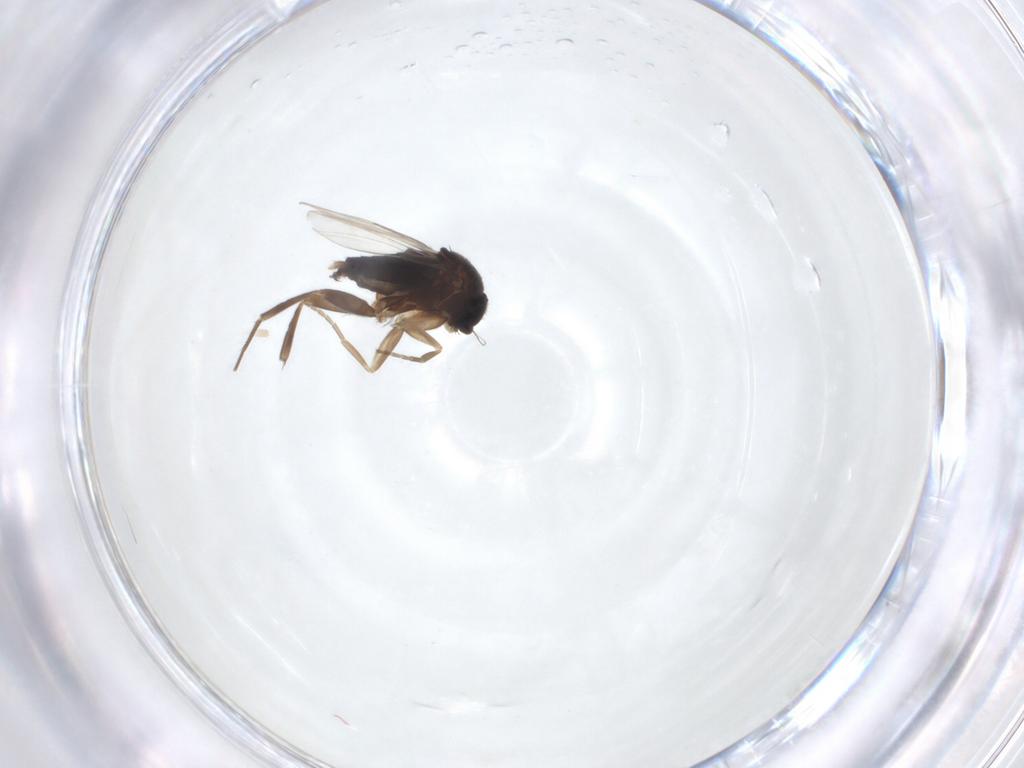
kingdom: Animalia
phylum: Arthropoda
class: Insecta
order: Diptera
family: Phoridae
